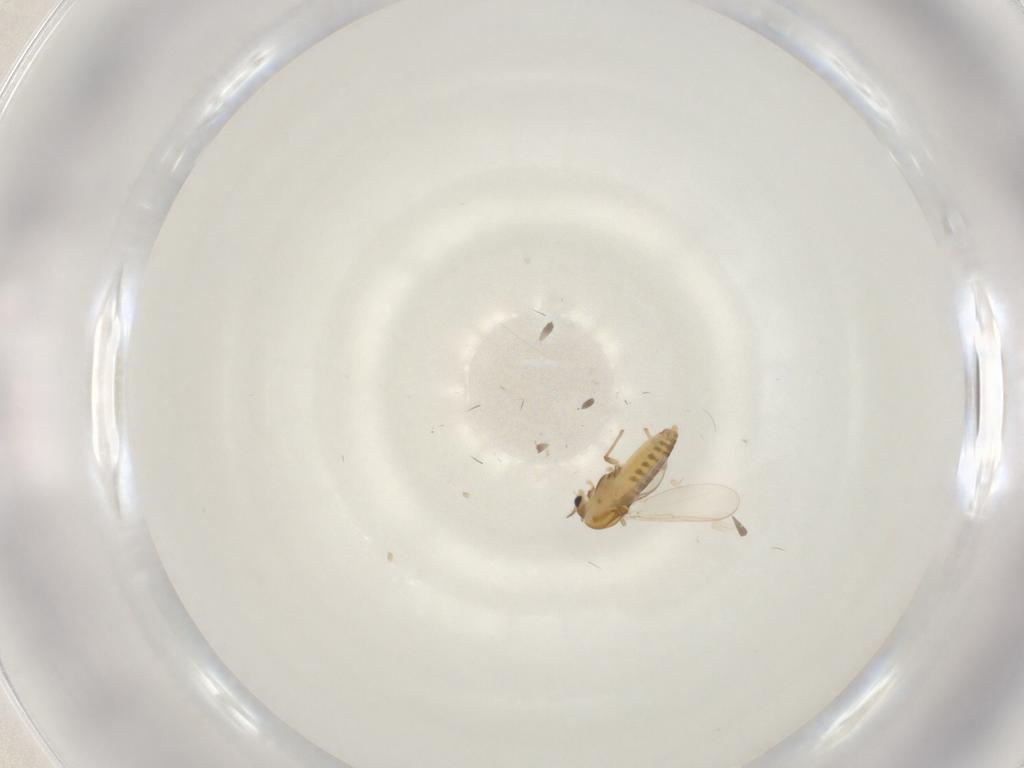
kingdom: Animalia
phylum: Arthropoda
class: Insecta
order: Diptera
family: Chironomidae
